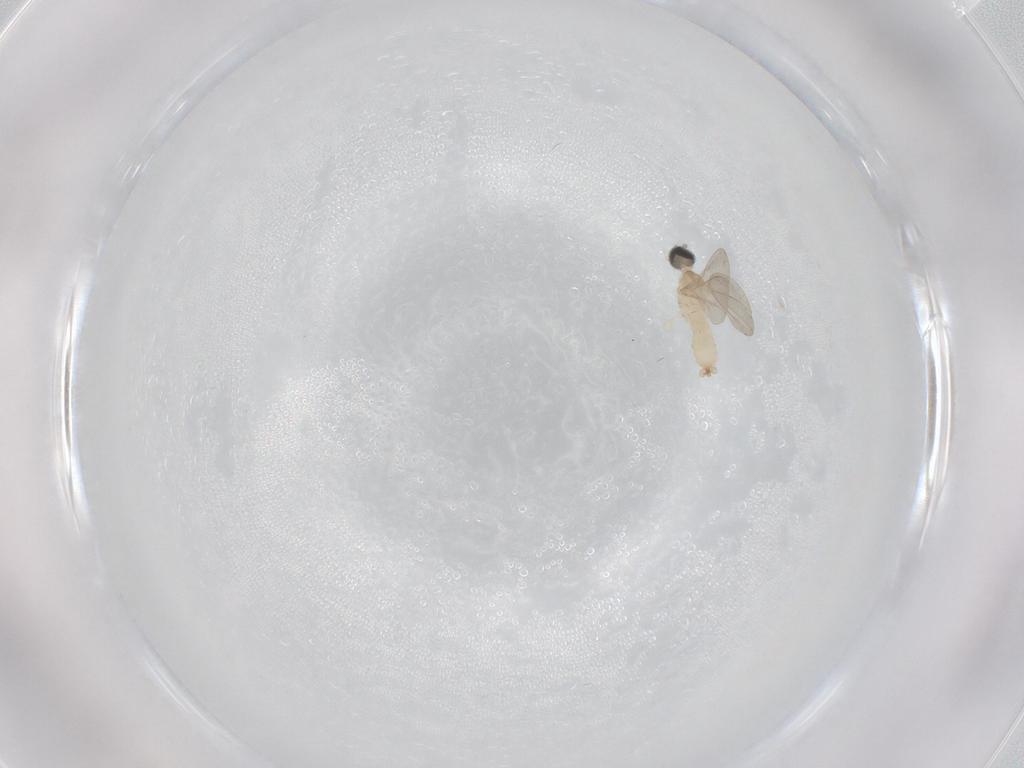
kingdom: Animalia
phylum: Arthropoda
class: Insecta
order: Diptera
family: Cecidomyiidae
